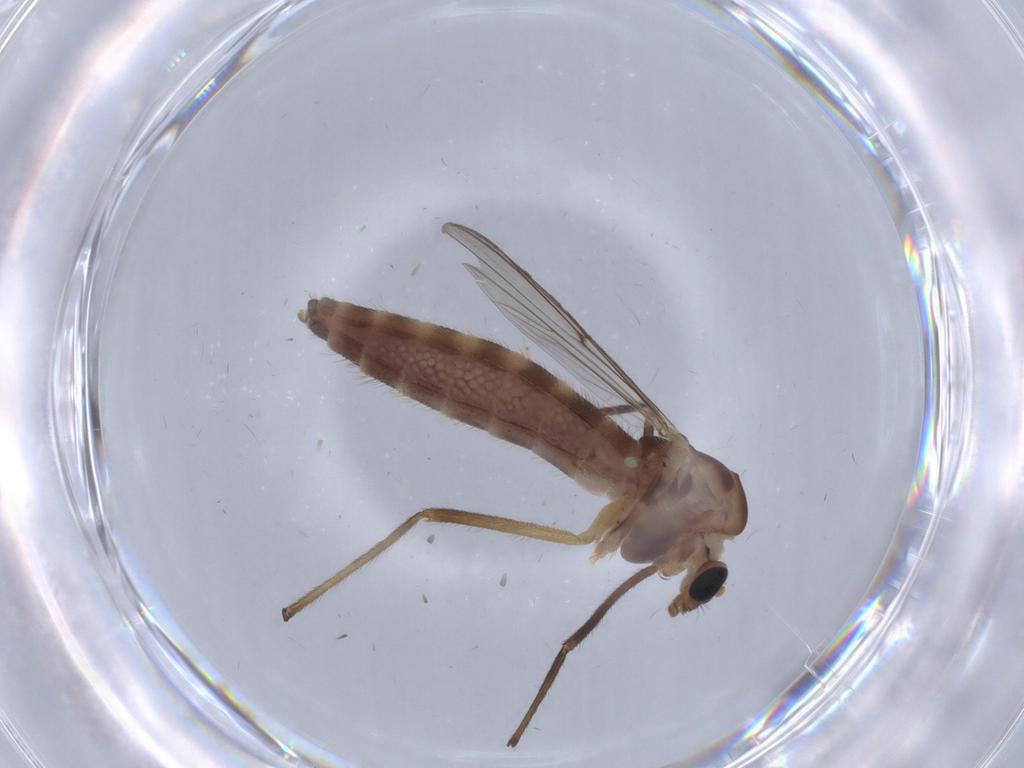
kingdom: Animalia
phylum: Arthropoda
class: Insecta
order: Diptera
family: Chironomidae
